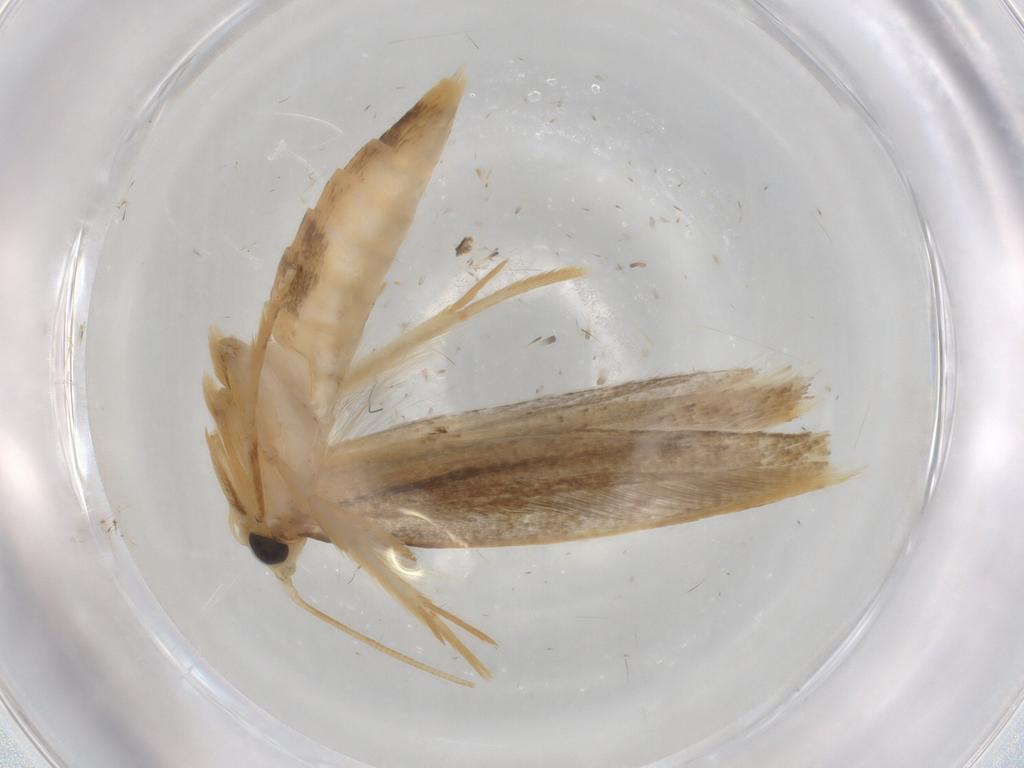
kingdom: Animalia
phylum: Arthropoda
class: Insecta
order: Lepidoptera
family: Tineidae
